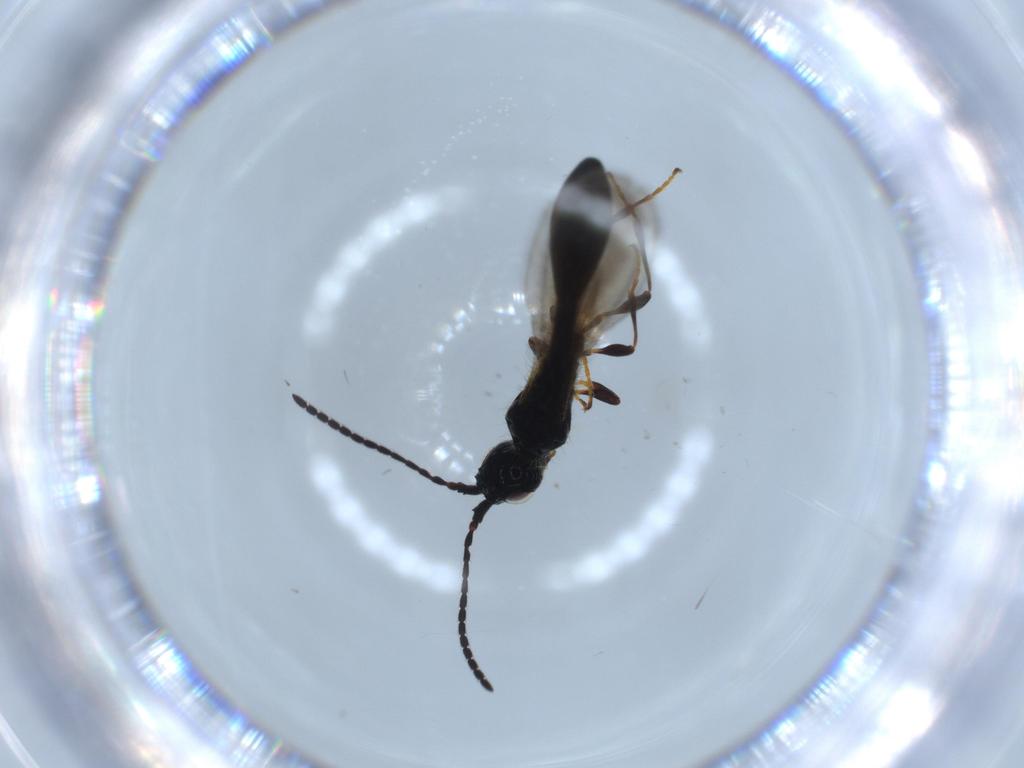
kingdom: Animalia
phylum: Arthropoda
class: Insecta
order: Hymenoptera
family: Diapriidae
